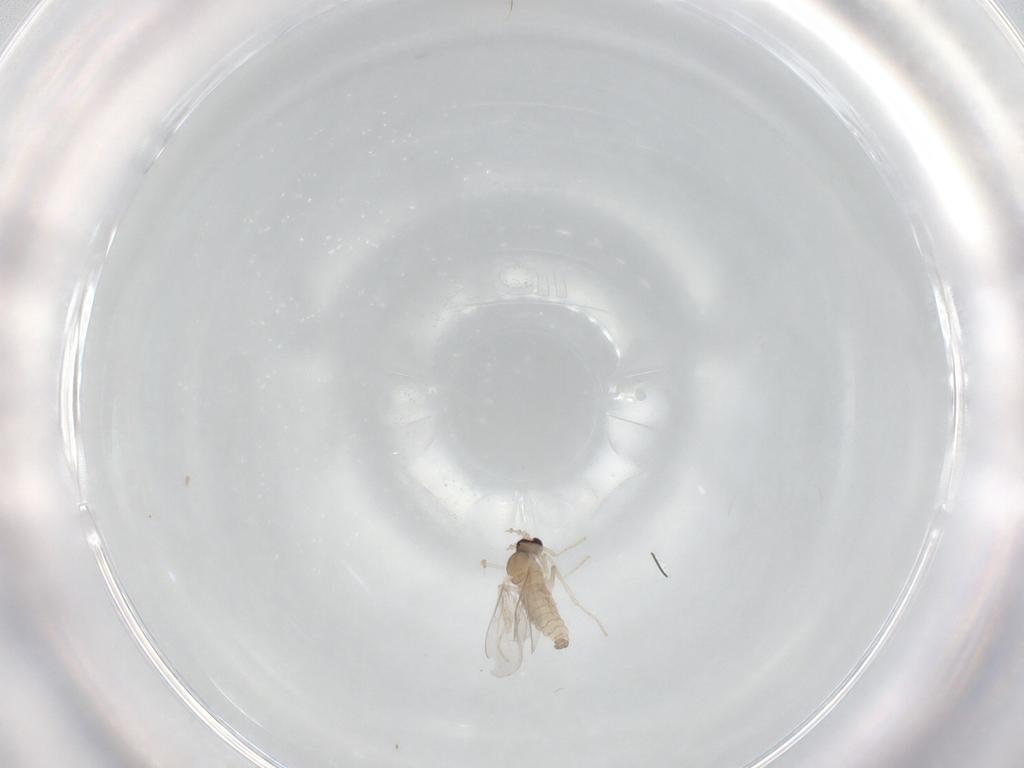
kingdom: Animalia
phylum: Arthropoda
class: Insecta
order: Diptera
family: Cecidomyiidae
